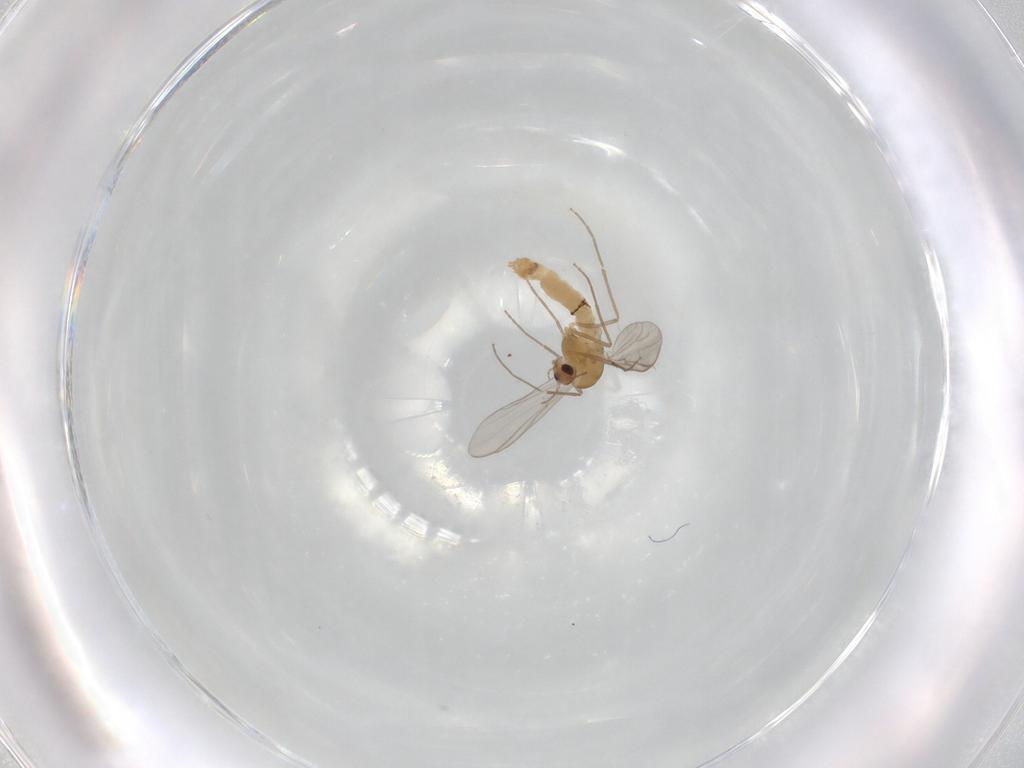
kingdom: Animalia
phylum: Arthropoda
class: Insecta
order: Diptera
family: Chironomidae
